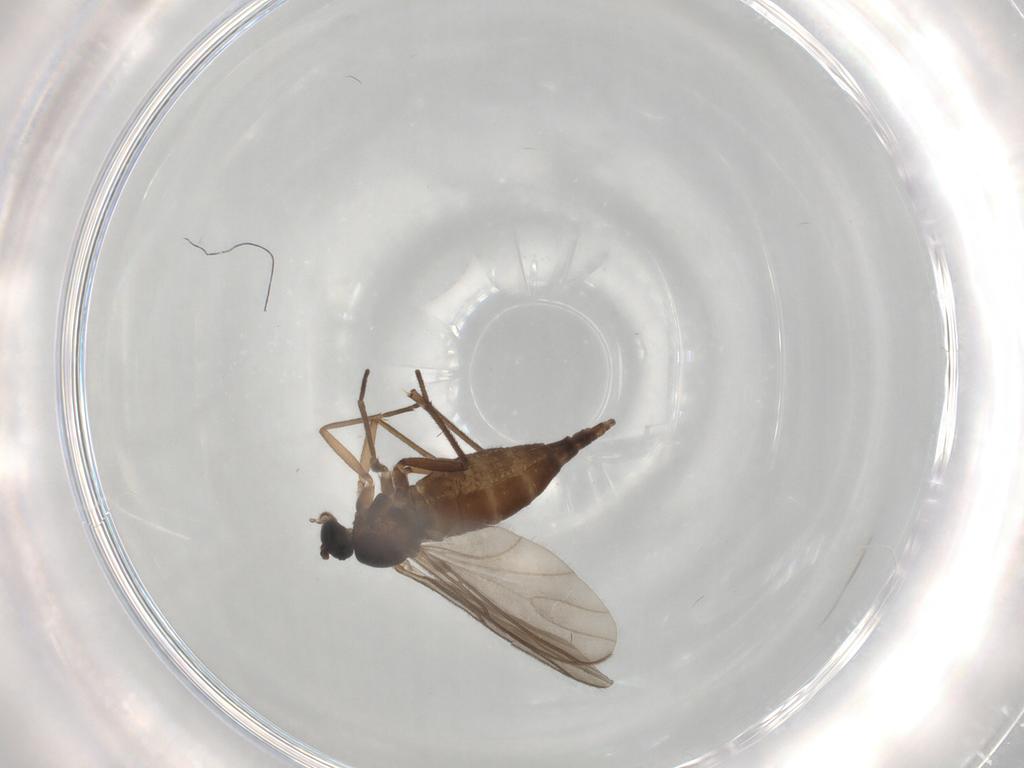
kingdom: Animalia
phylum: Arthropoda
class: Insecta
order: Diptera
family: Sciaridae
